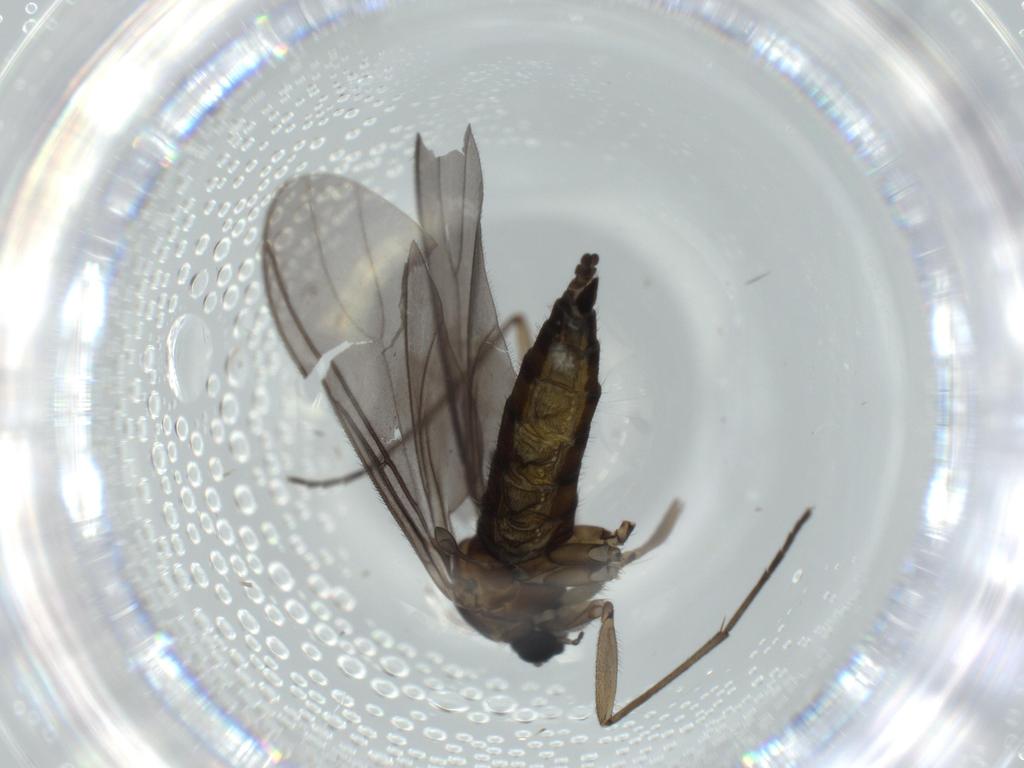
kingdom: Animalia
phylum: Arthropoda
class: Insecta
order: Diptera
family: Sciaridae
